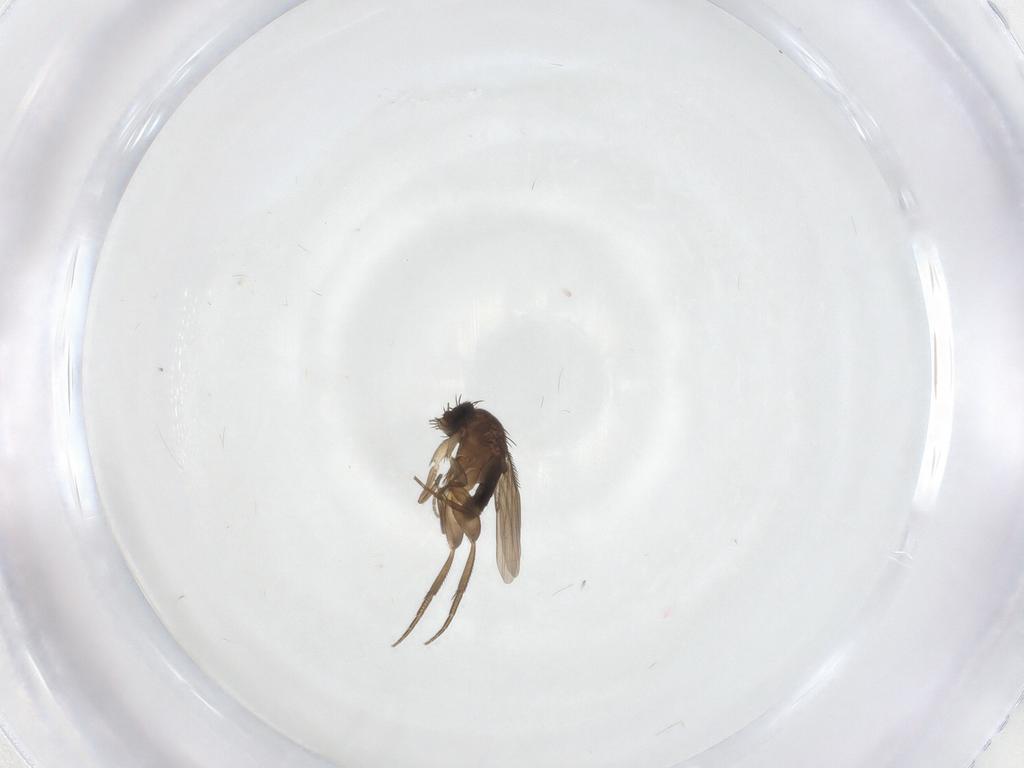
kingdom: Animalia
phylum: Arthropoda
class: Insecta
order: Diptera
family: Phoridae
